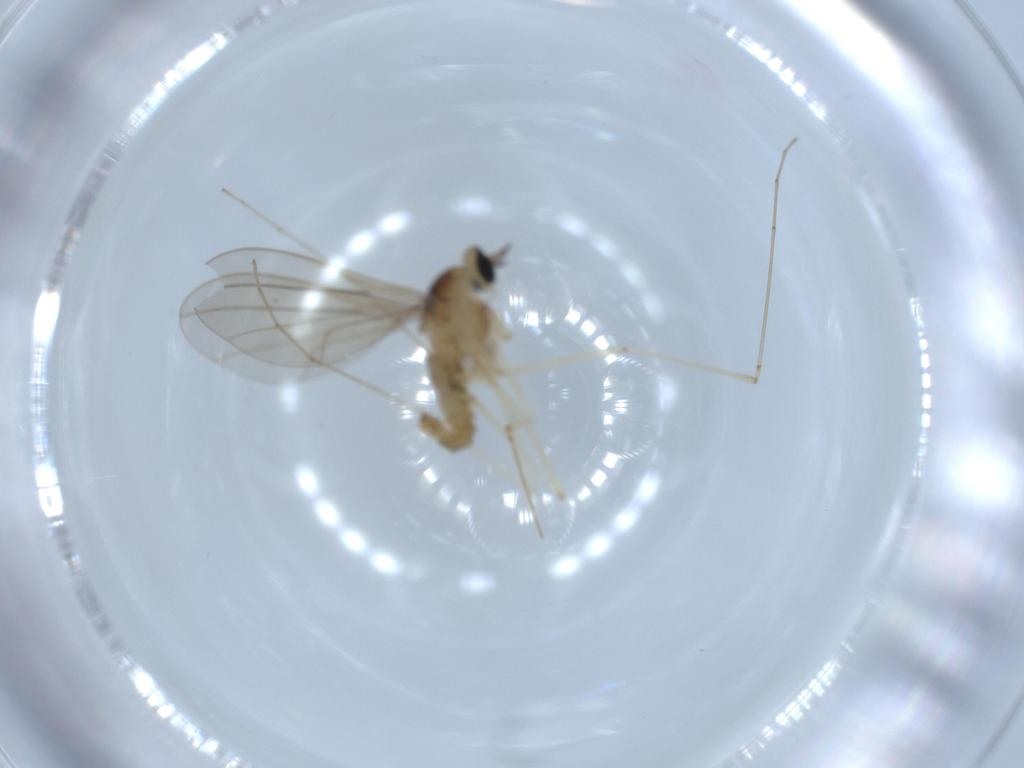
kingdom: Animalia
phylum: Arthropoda
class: Insecta
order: Diptera
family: Cecidomyiidae
